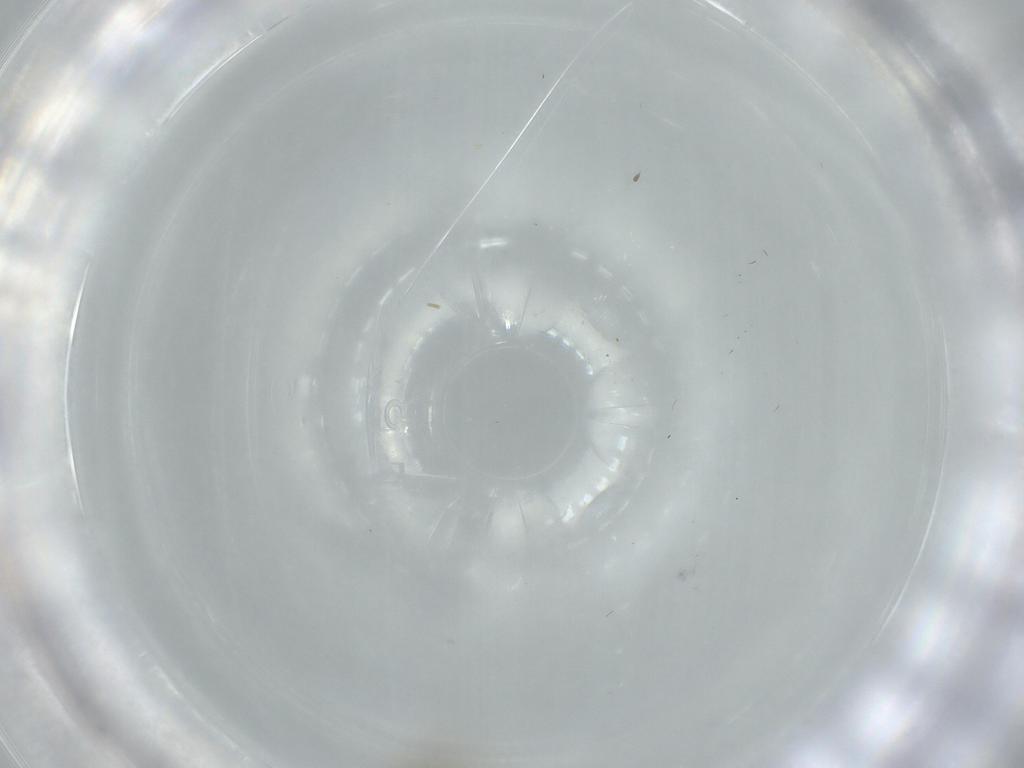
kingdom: Animalia
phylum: Arthropoda
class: Insecta
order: Diptera
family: Chironomidae
